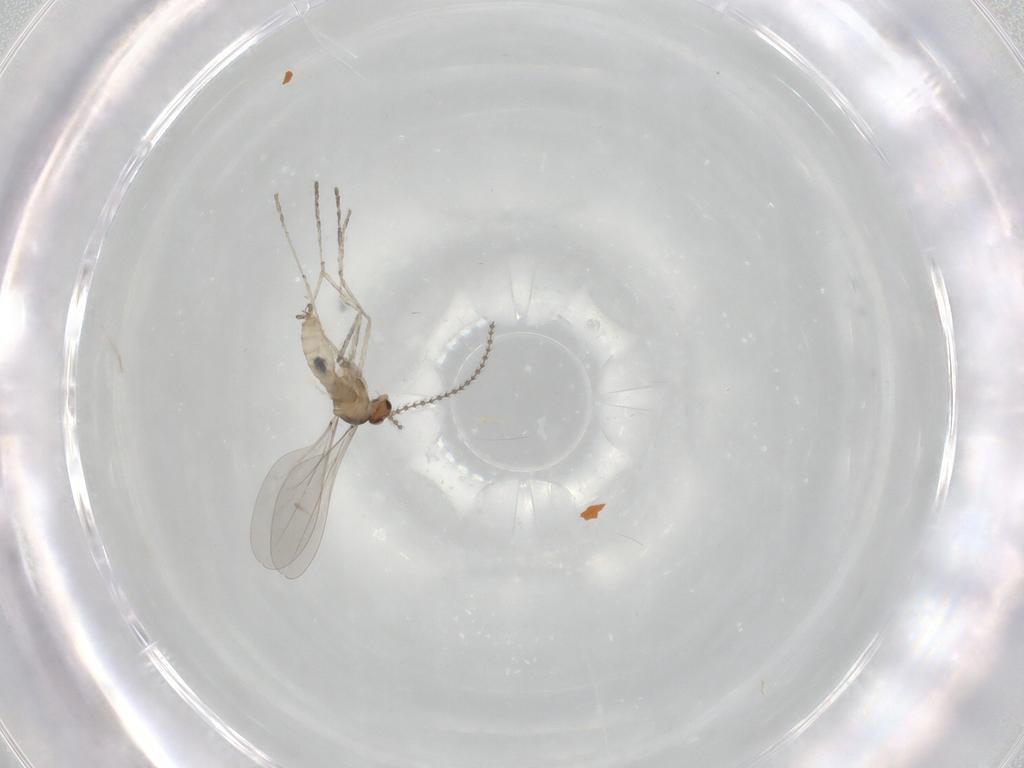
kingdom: Animalia
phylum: Arthropoda
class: Insecta
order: Diptera
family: Cecidomyiidae
